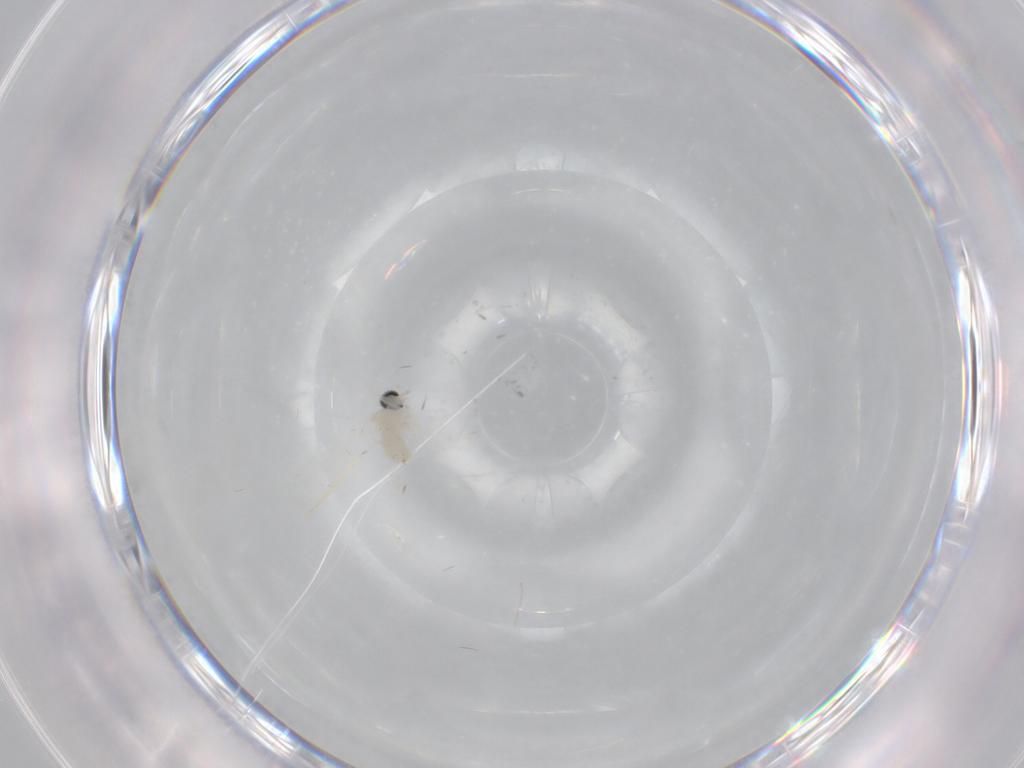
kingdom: Animalia
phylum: Arthropoda
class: Insecta
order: Diptera
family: Cecidomyiidae
